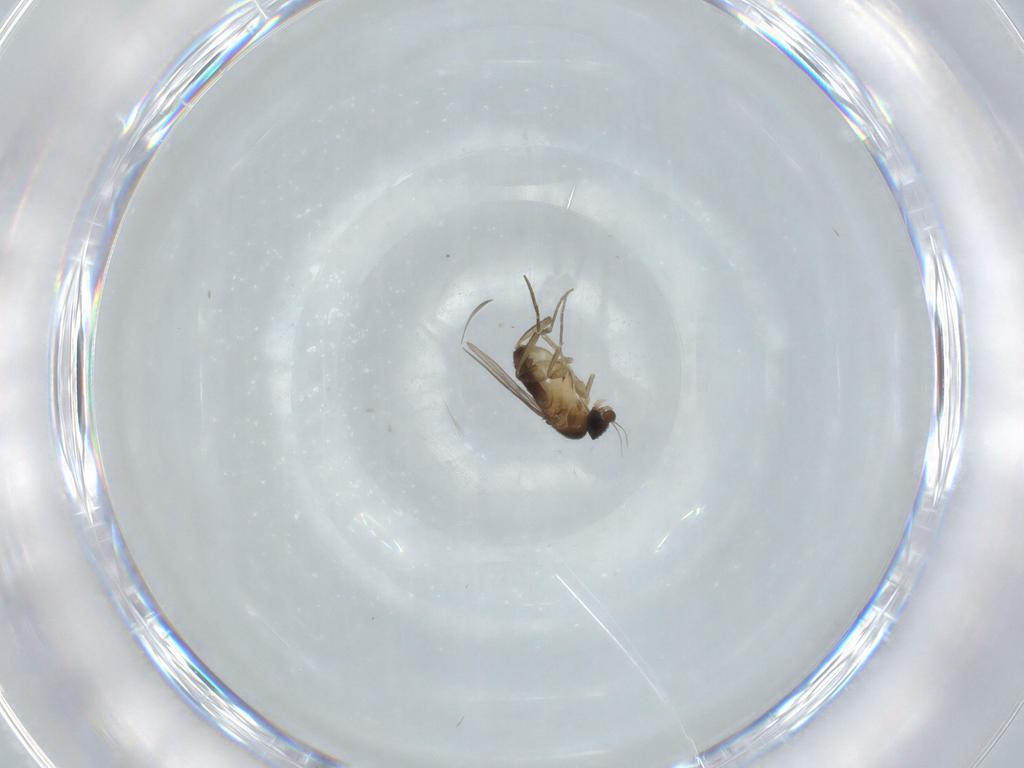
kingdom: Animalia
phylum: Arthropoda
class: Insecta
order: Diptera
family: Phoridae
